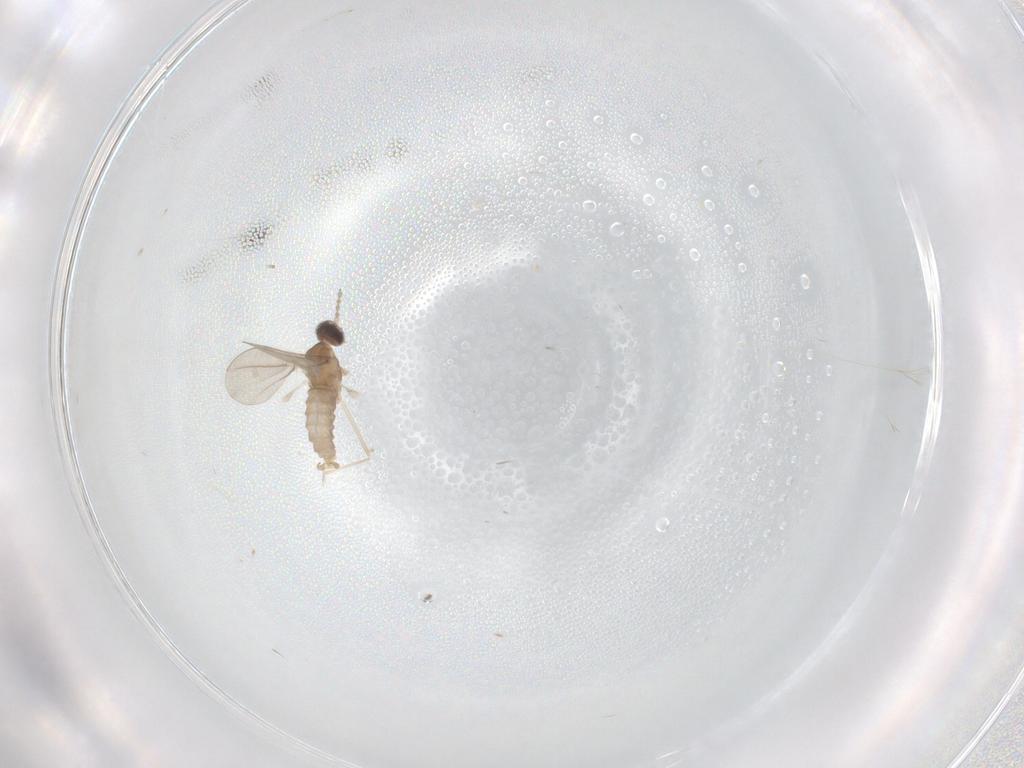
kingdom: Animalia
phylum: Arthropoda
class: Insecta
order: Diptera
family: Cecidomyiidae
